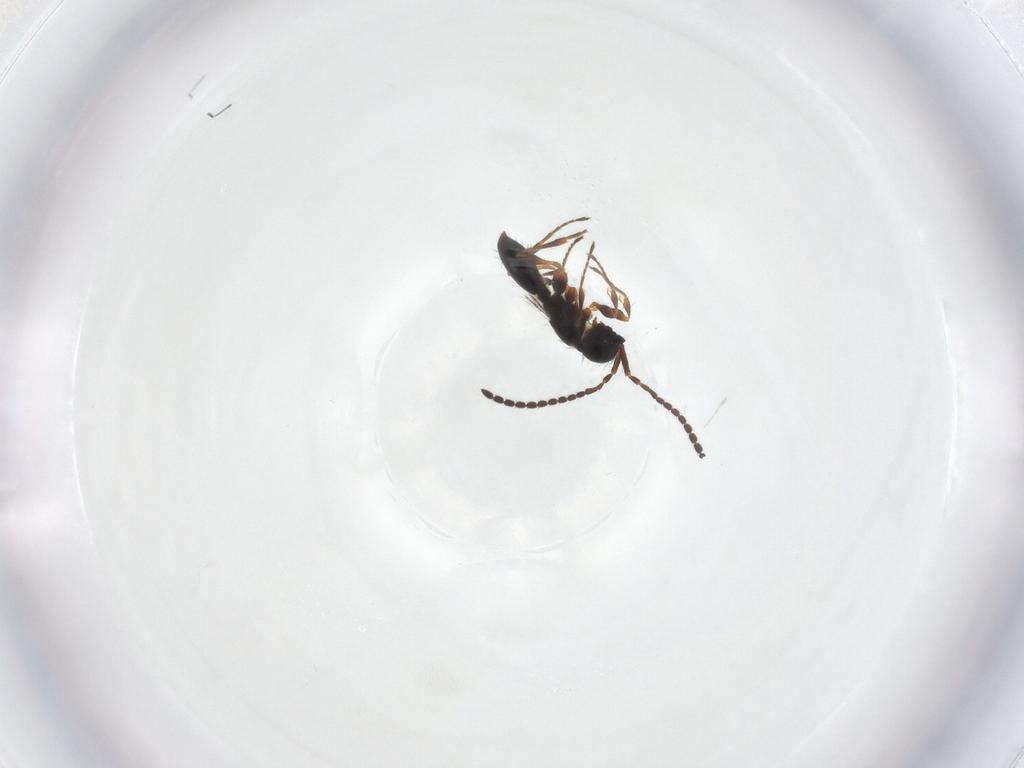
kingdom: Animalia
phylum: Arthropoda
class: Insecta
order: Hymenoptera
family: Diapriidae
